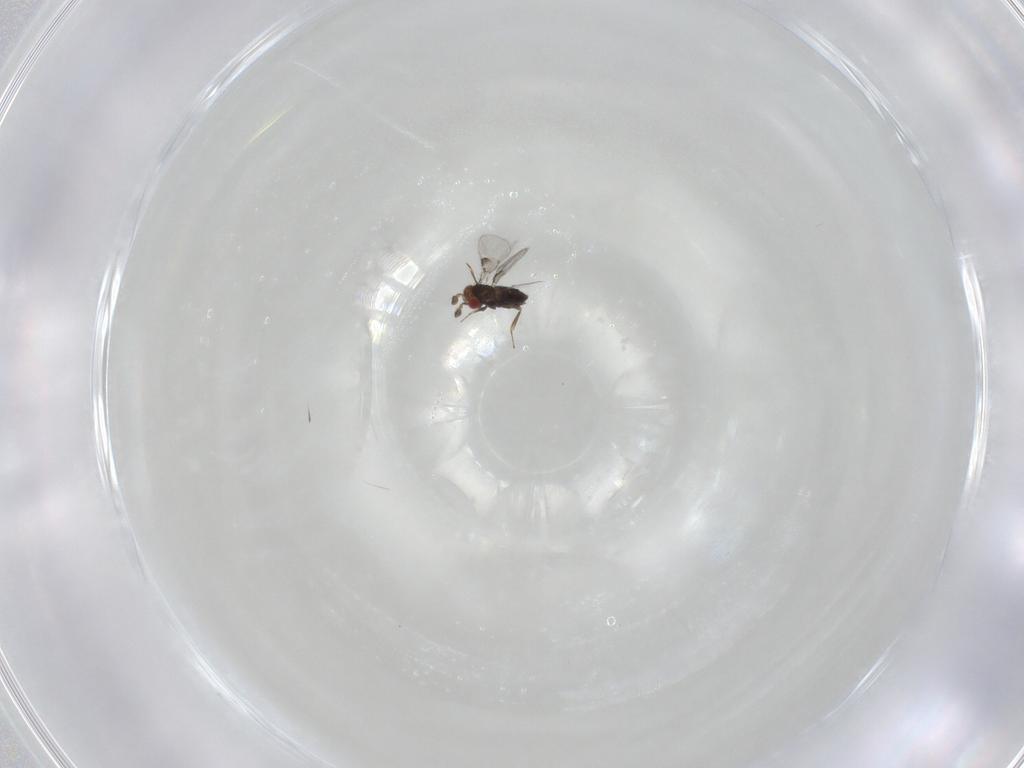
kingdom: Animalia
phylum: Arthropoda
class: Insecta
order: Hymenoptera
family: Trichogrammatidae
